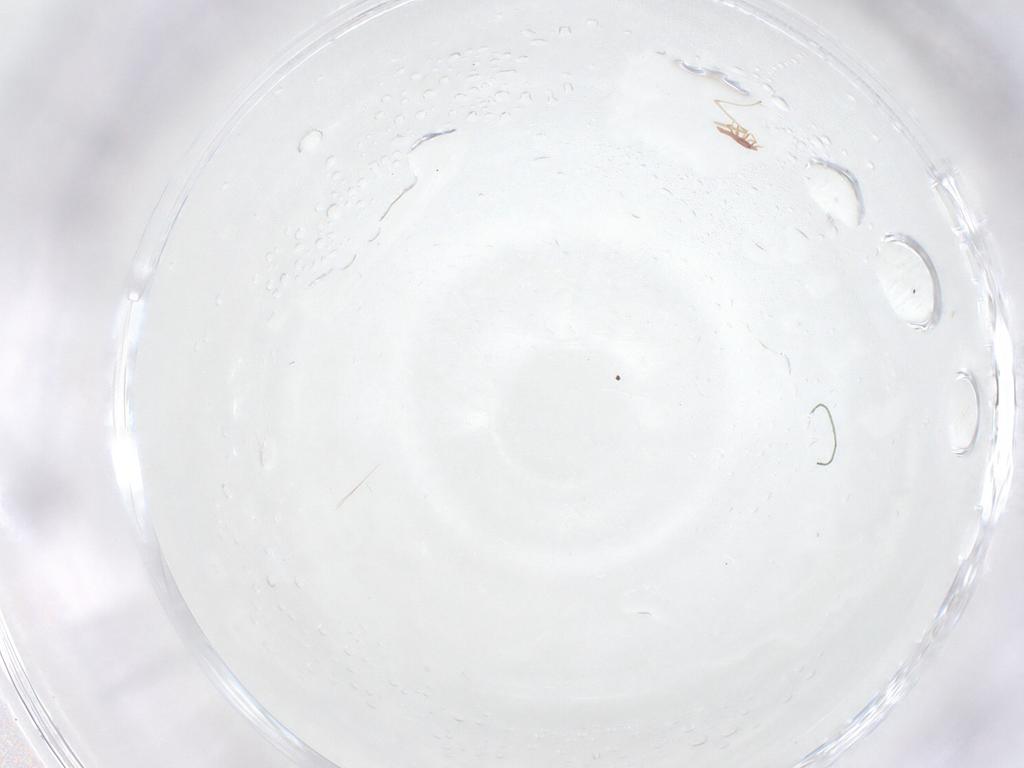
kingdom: Animalia
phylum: Arthropoda
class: Insecta
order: Diptera
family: Cecidomyiidae
